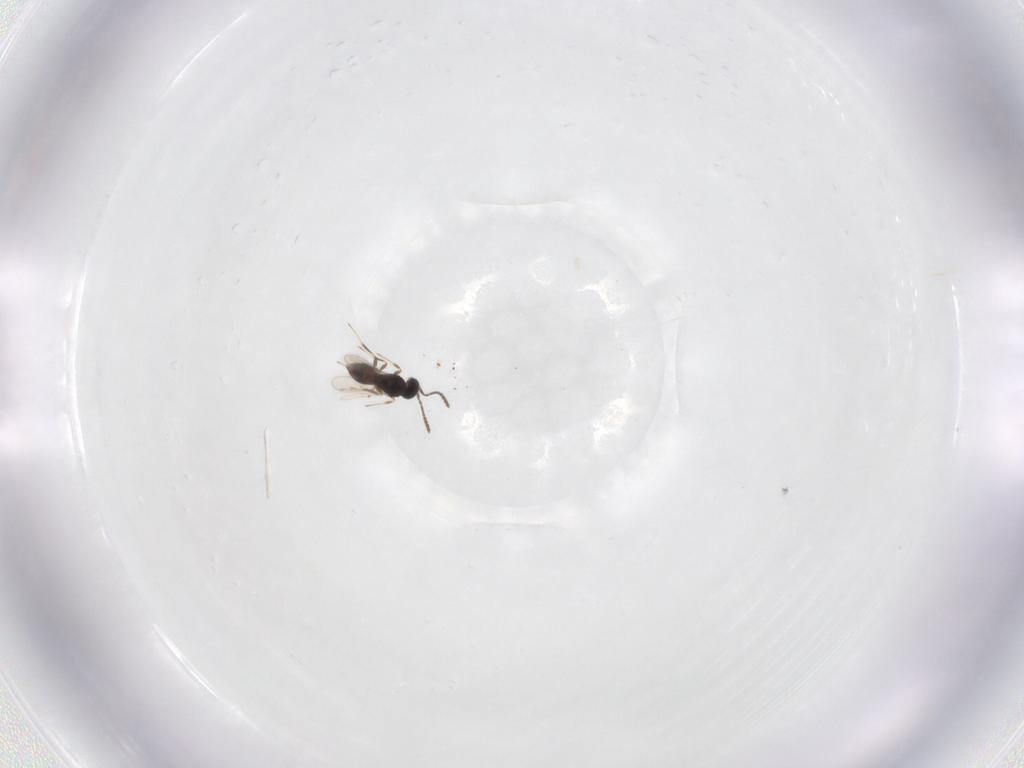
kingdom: Animalia
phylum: Arthropoda
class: Insecta
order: Hymenoptera
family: Scelionidae
